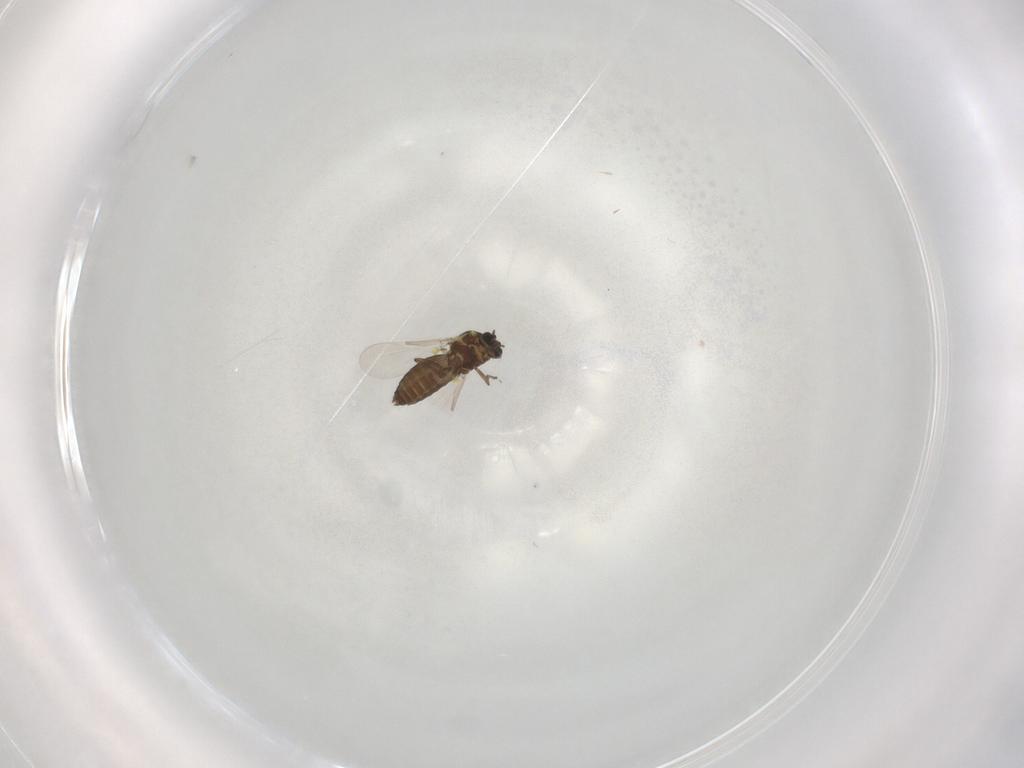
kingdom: Animalia
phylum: Arthropoda
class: Insecta
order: Diptera
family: Ceratopogonidae
